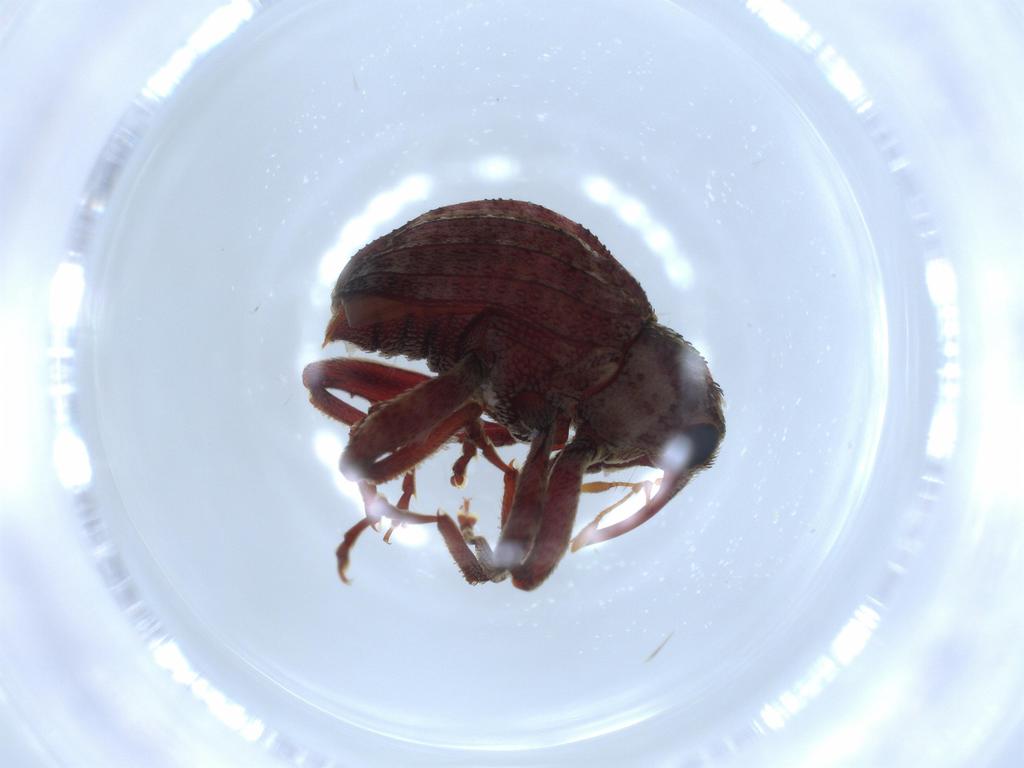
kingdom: Animalia
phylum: Arthropoda
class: Insecta
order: Coleoptera
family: Curculionidae
